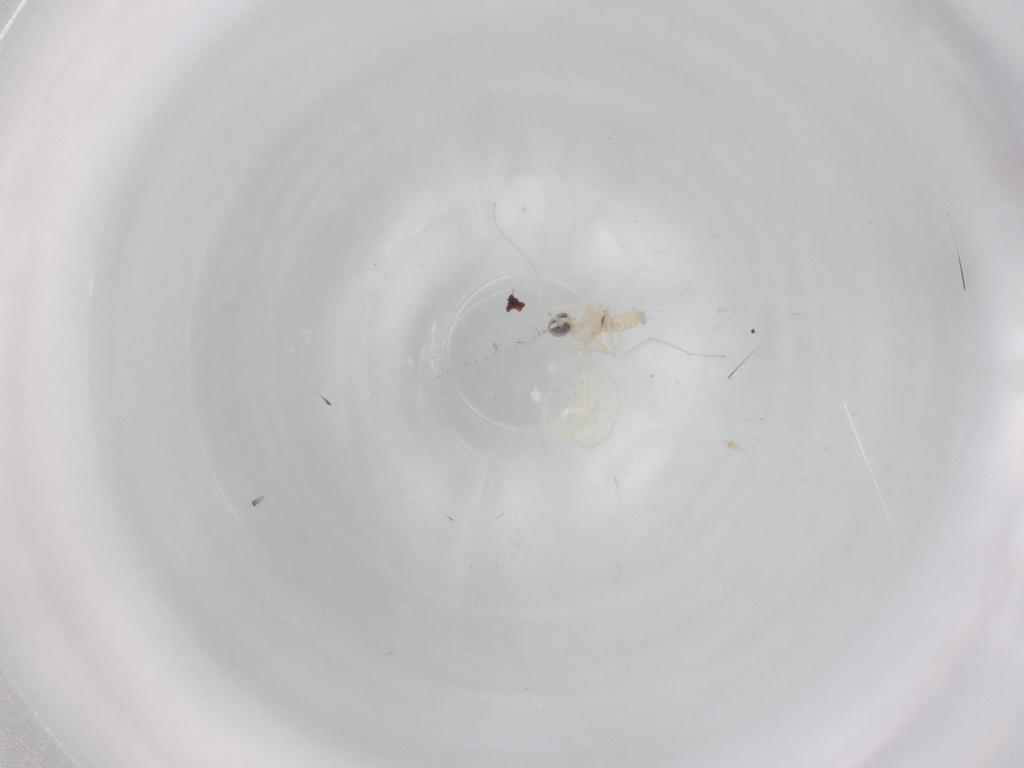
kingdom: Animalia
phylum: Arthropoda
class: Insecta
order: Diptera
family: Cecidomyiidae
